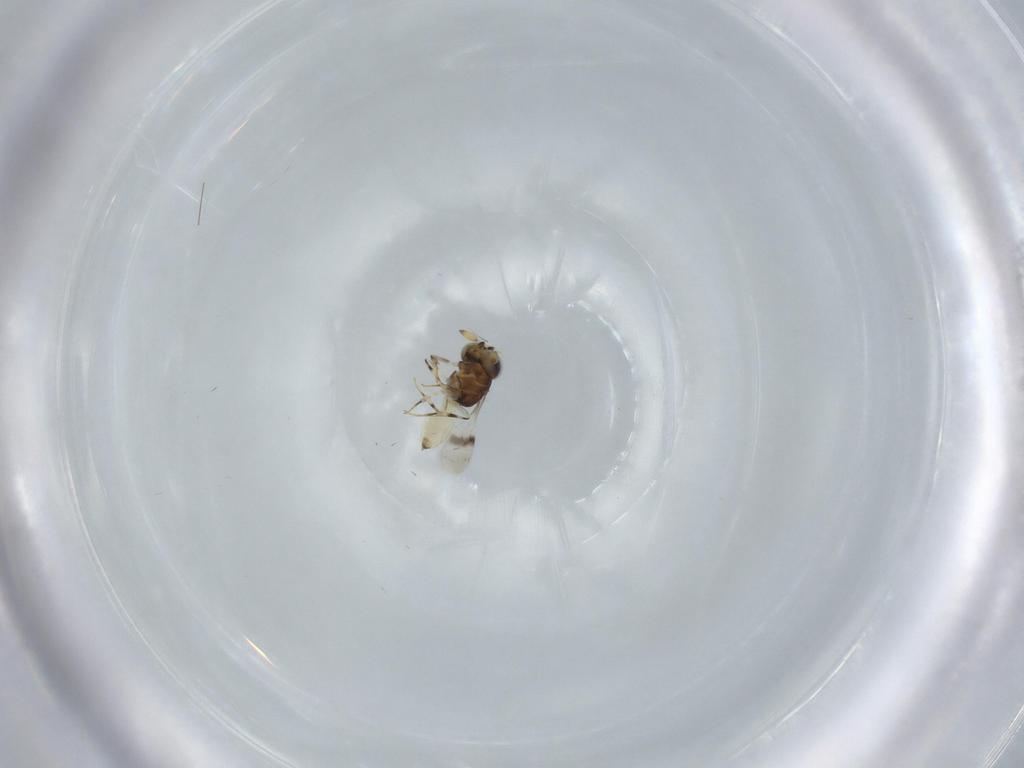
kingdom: Animalia
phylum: Arthropoda
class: Insecta
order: Hymenoptera
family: Scelionidae
